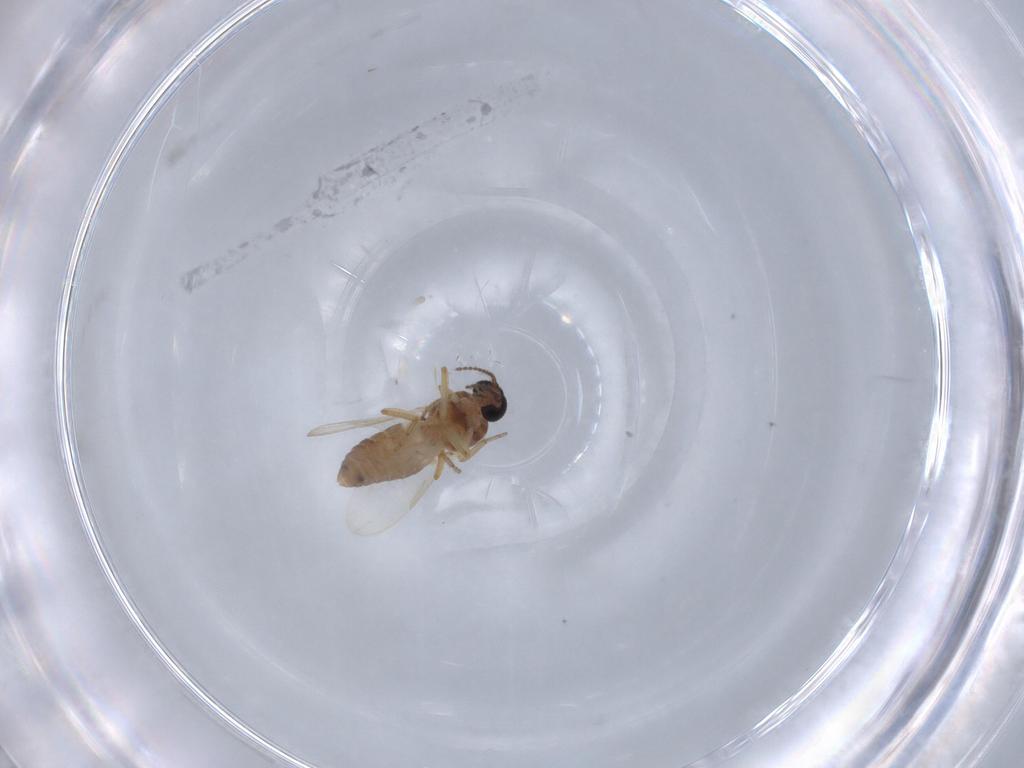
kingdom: Animalia
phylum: Arthropoda
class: Insecta
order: Diptera
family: Ceratopogonidae
